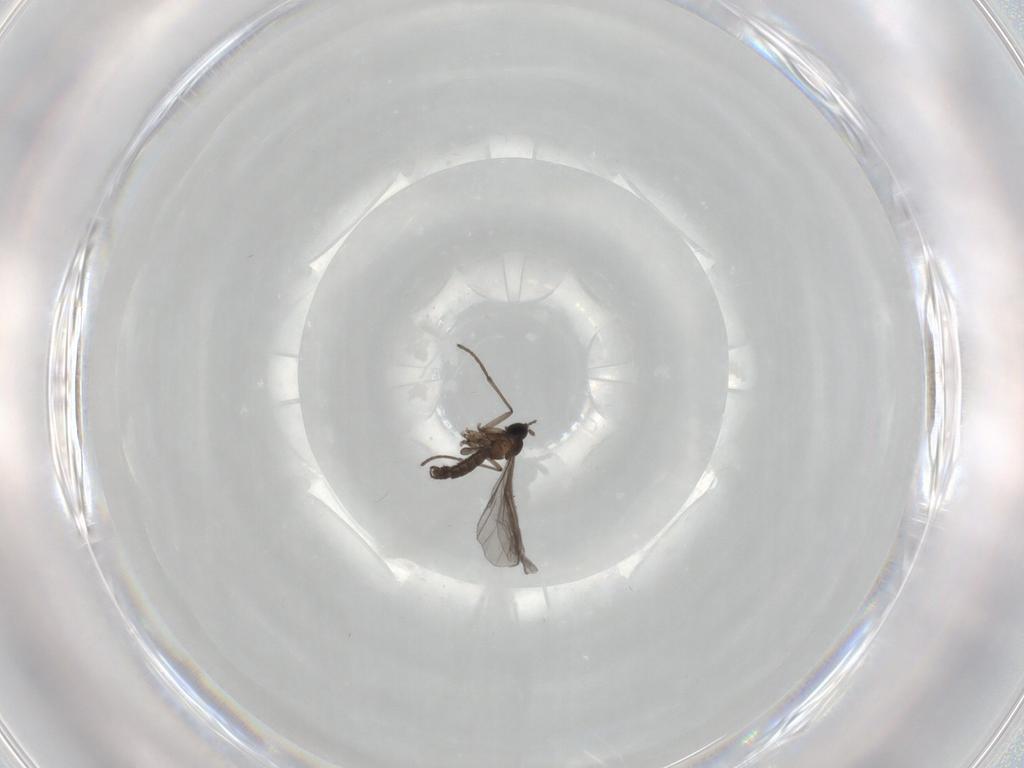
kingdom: Animalia
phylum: Arthropoda
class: Insecta
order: Diptera
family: Sciaridae
